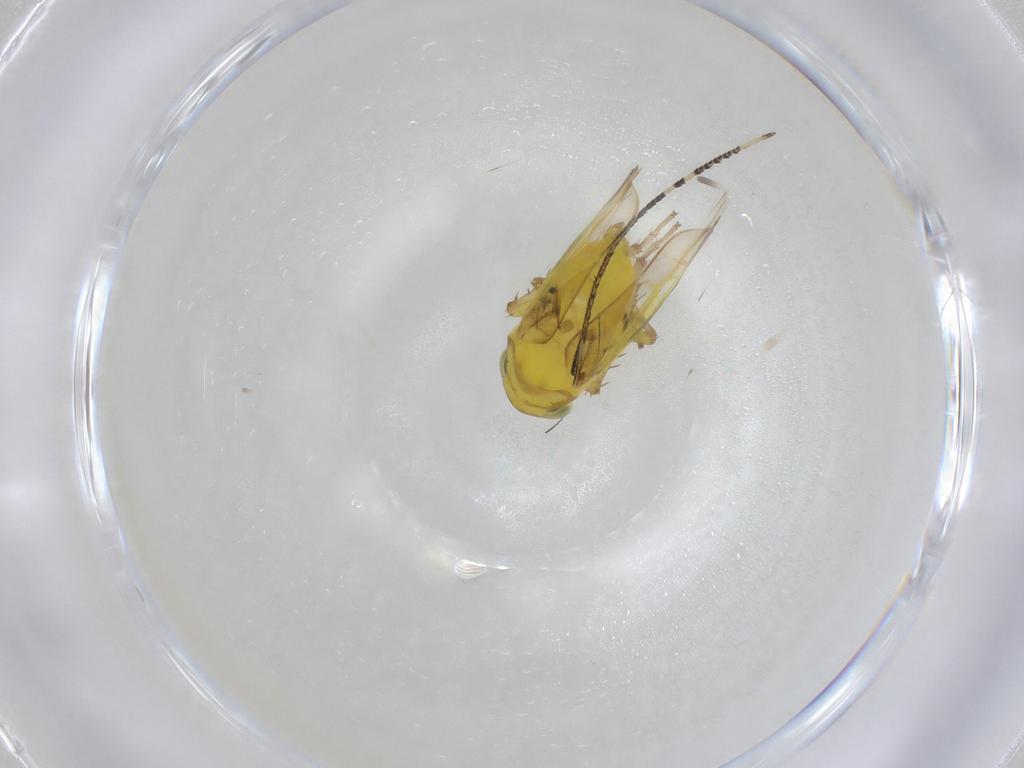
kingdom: Animalia
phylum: Arthropoda
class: Insecta
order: Hemiptera
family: Cicadellidae
